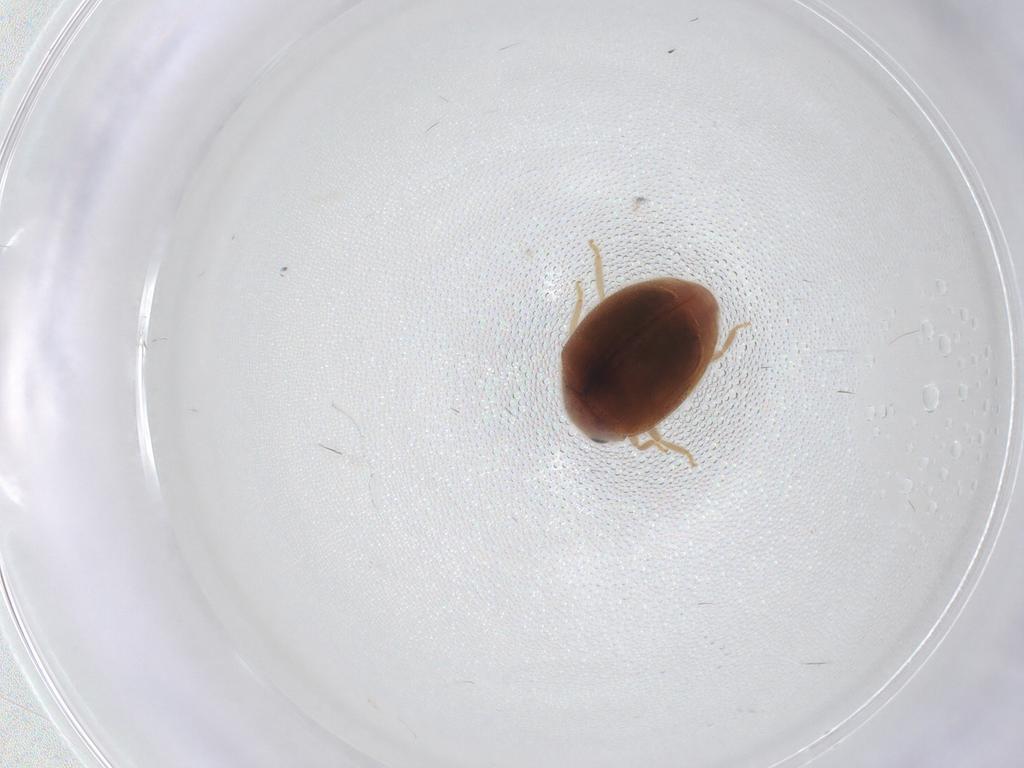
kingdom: Animalia
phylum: Arthropoda
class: Insecta
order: Coleoptera
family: Coccinellidae
